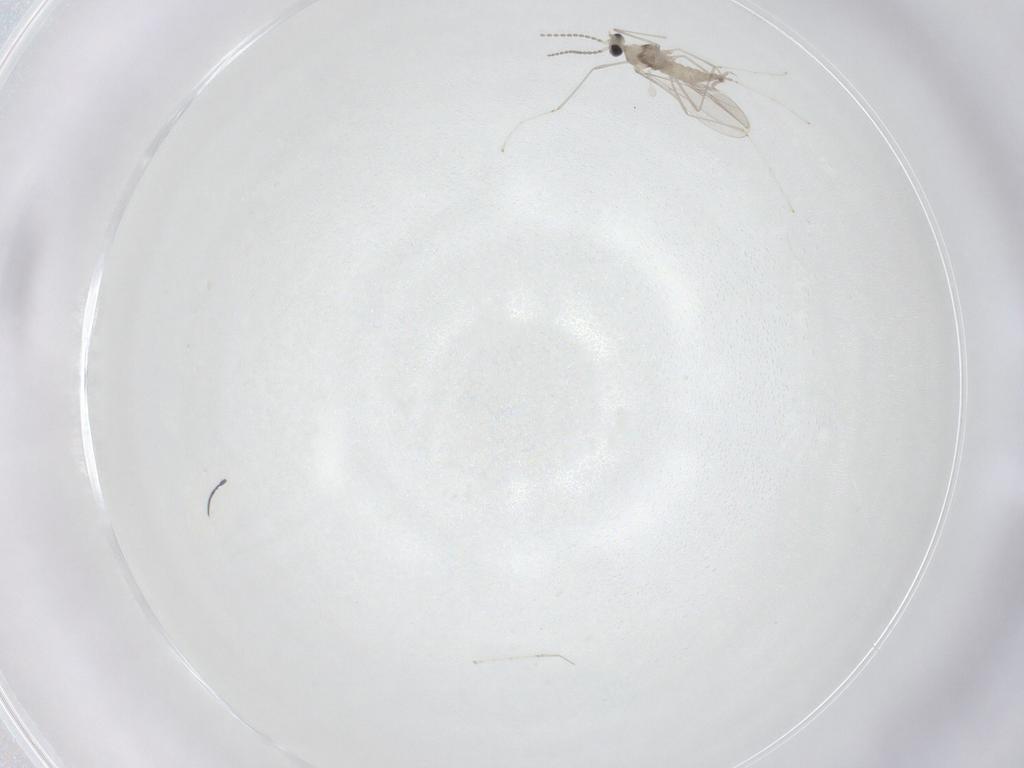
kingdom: Animalia
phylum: Arthropoda
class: Insecta
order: Diptera
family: Cecidomyiidae
